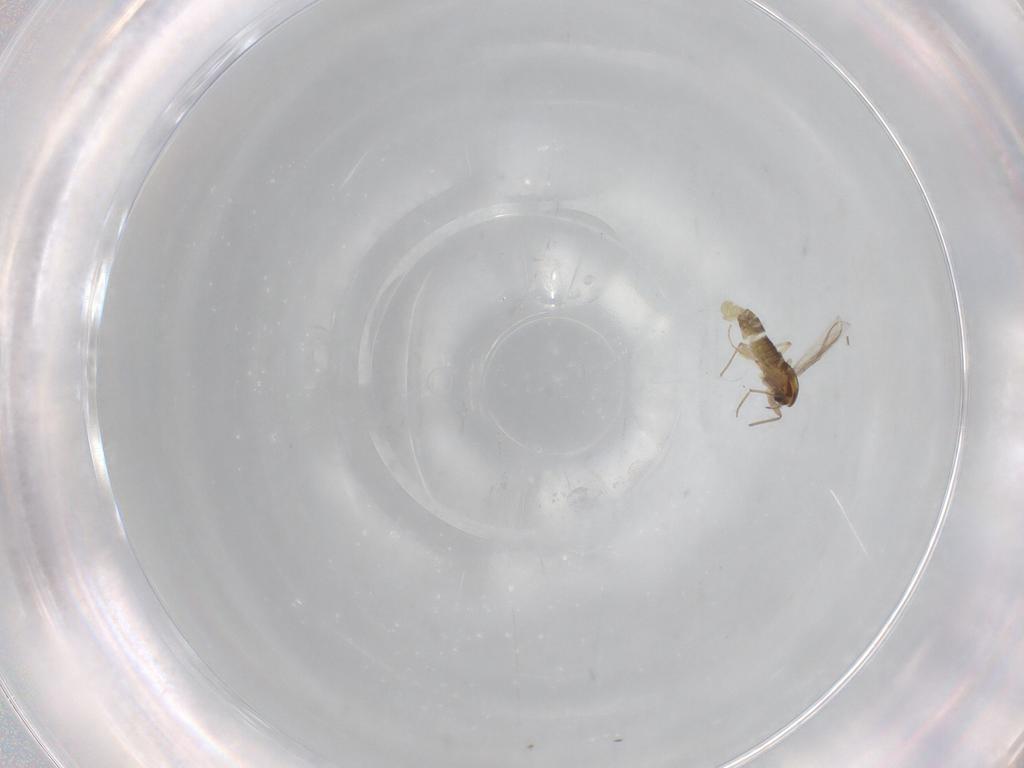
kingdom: Animalia
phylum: Arthropoda
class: Insecta
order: Diptera
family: Chironomidae
